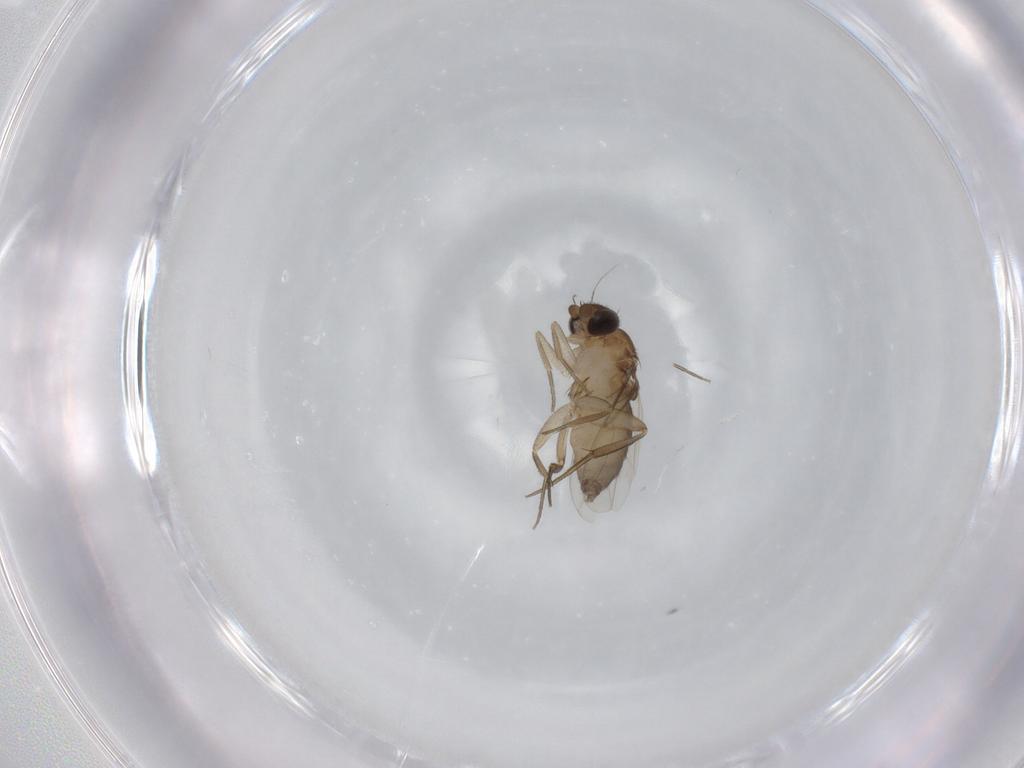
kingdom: Animalia
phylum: Arthropoda
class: Insecta
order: Diptera
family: Phoridae
